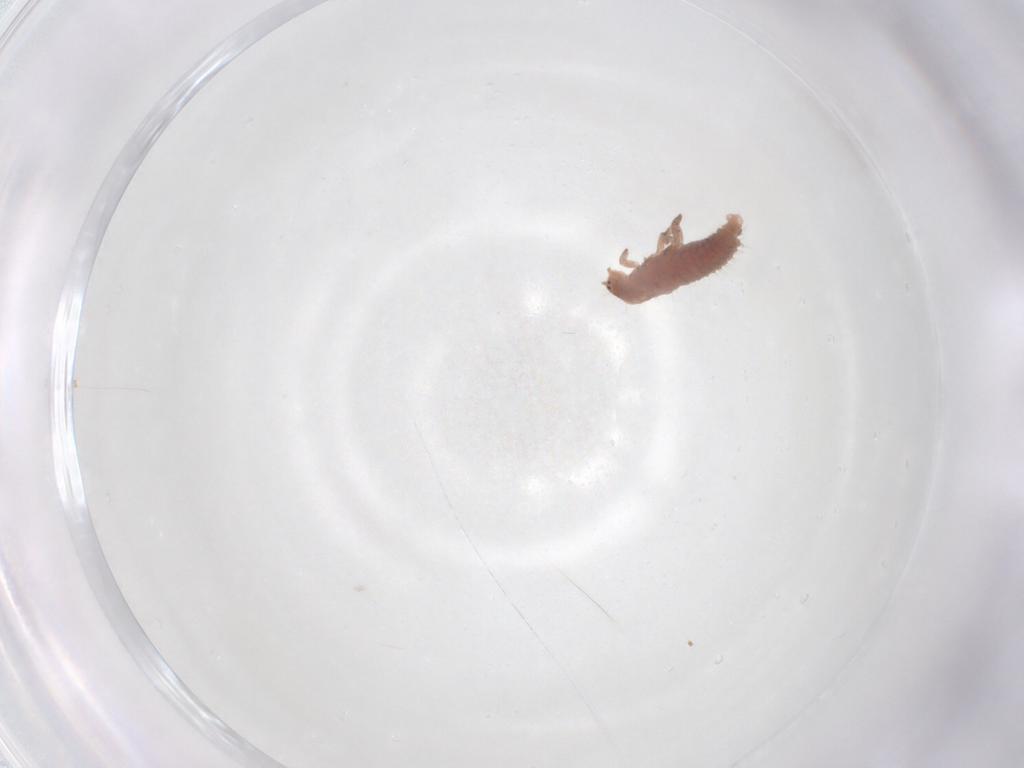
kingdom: Animalia
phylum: Arthropoda
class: Insecta
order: Coleoptera
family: Coccinellidae
